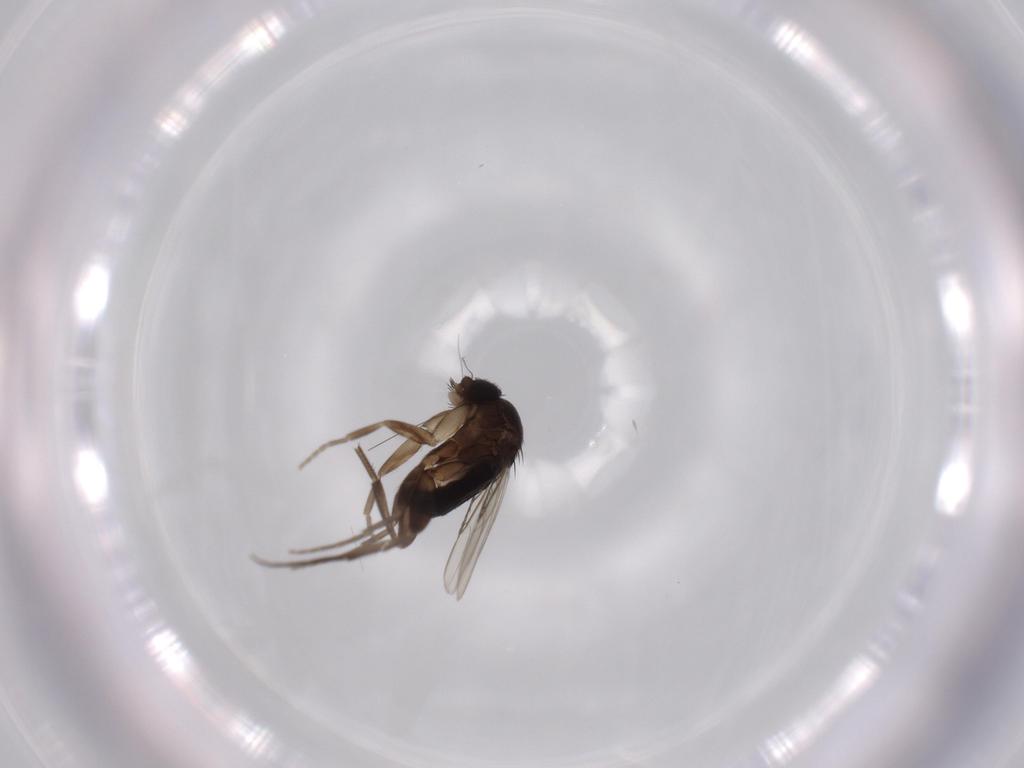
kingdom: Animalia
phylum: Arthropoda
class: Insecta
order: Diptera
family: Phoridae
